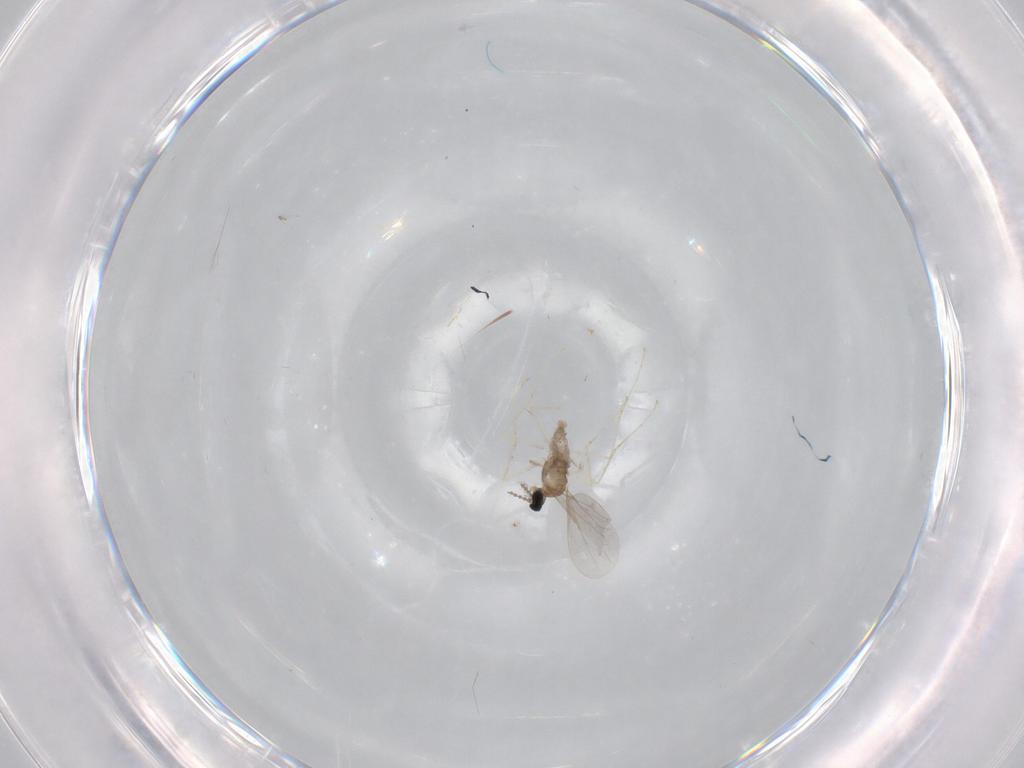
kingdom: Animalia
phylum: Arthropoda
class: Insecta
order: Diptera
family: Cecidomyiidae
